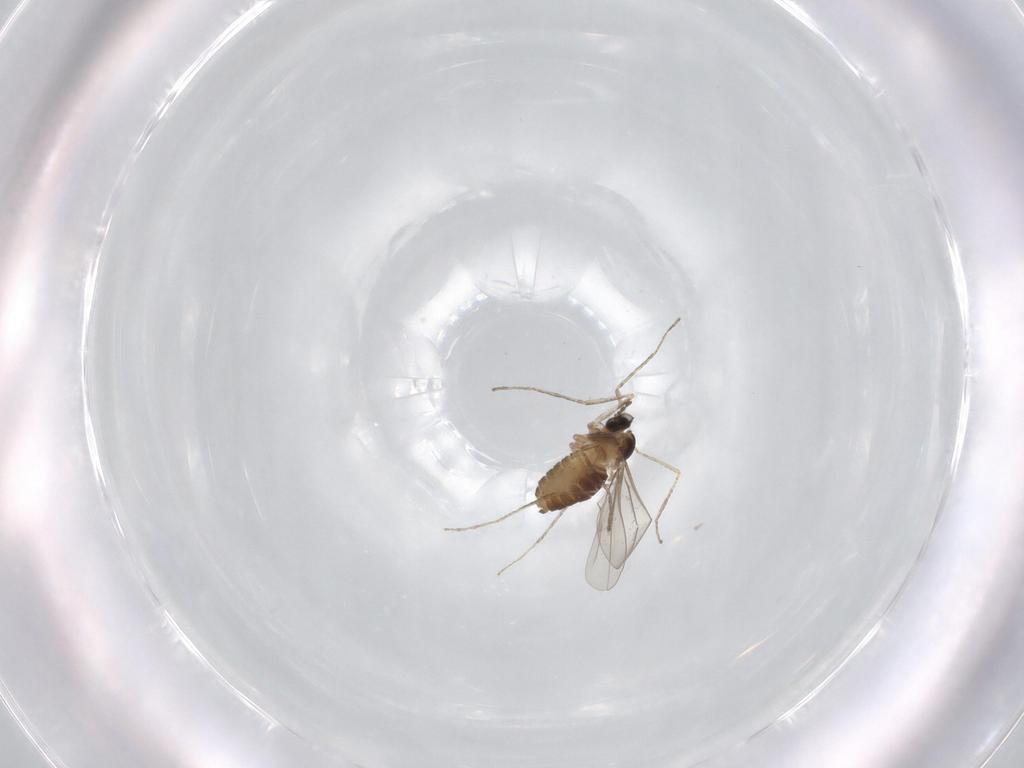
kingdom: Animalia
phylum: Arthropoda
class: Insecta
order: Diptera
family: Cecidomyiidae
